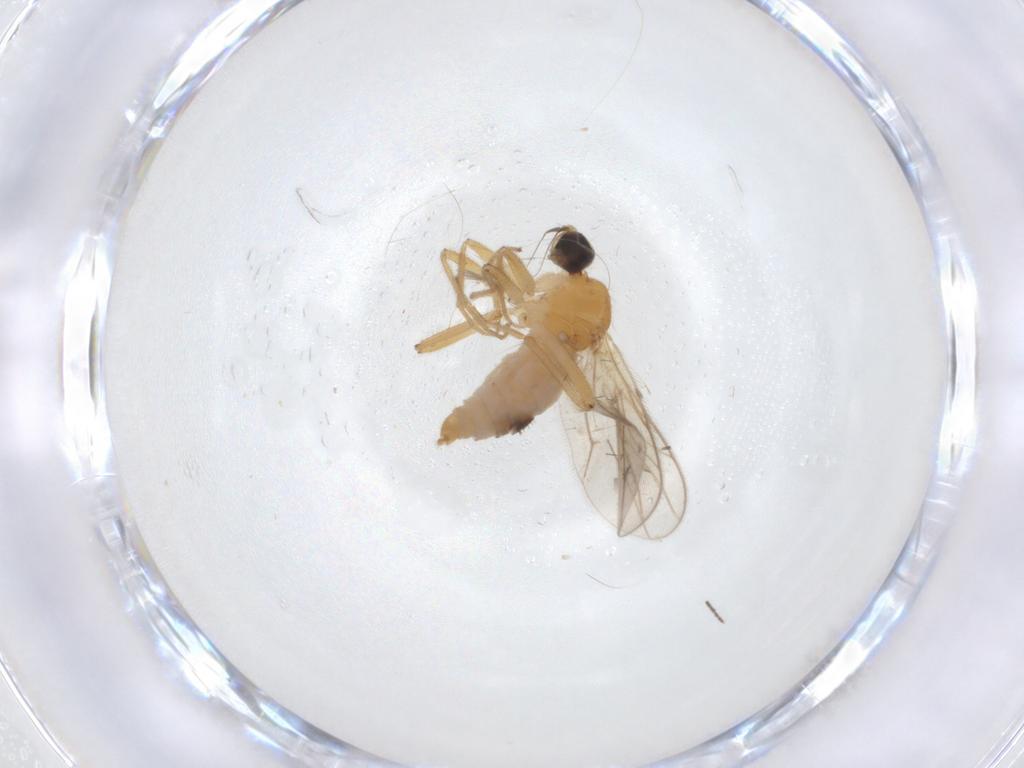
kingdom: Animalia
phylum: Arthropoda
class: Insecta
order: Diptera
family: Hybotidae
